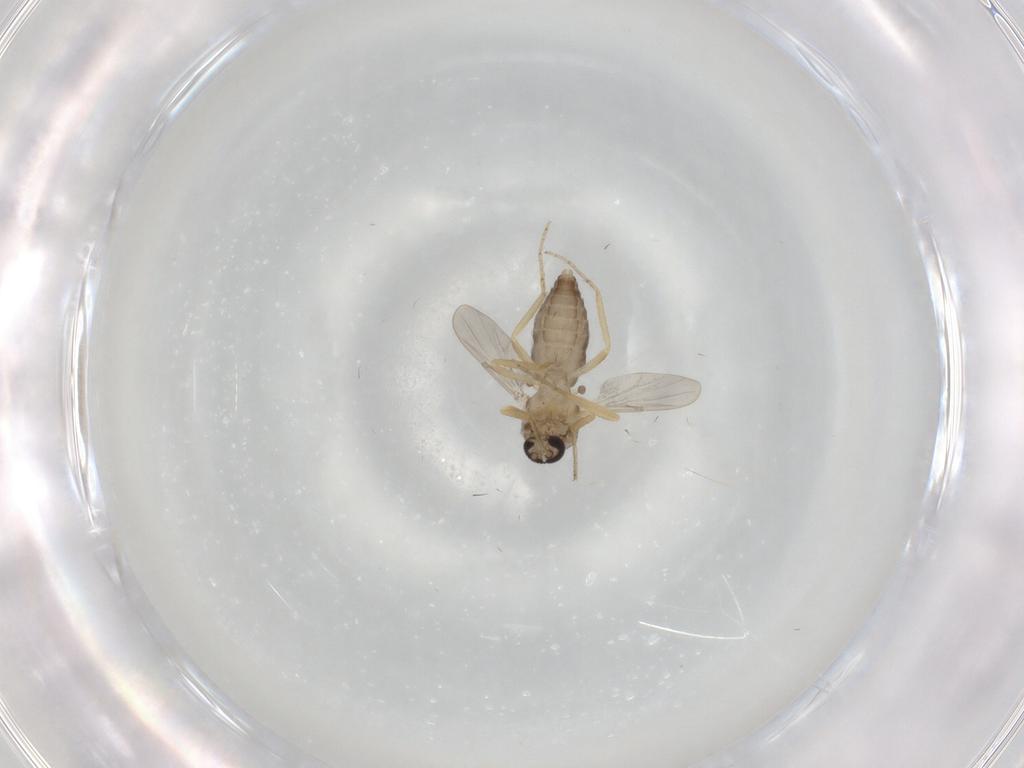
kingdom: Animalia
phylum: Arthropoda
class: Insecta
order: Diptera
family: Ceratopogonidae
